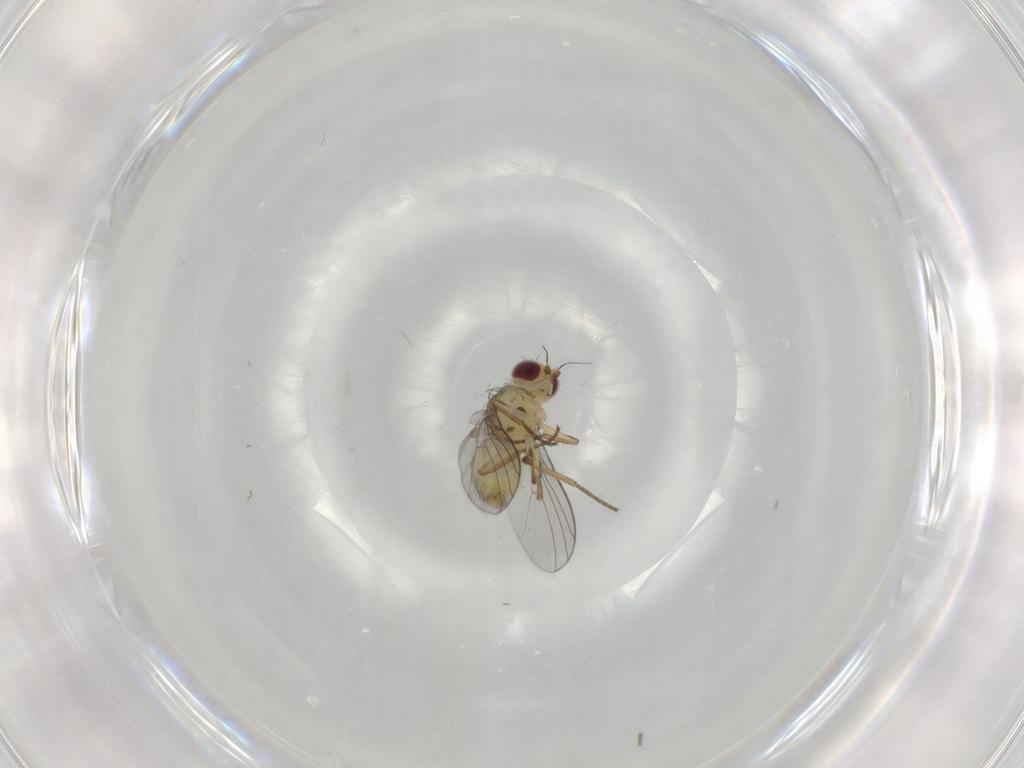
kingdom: Animalia
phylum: Arthropoda
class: Insecta
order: Diptera
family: Agromyzidae
